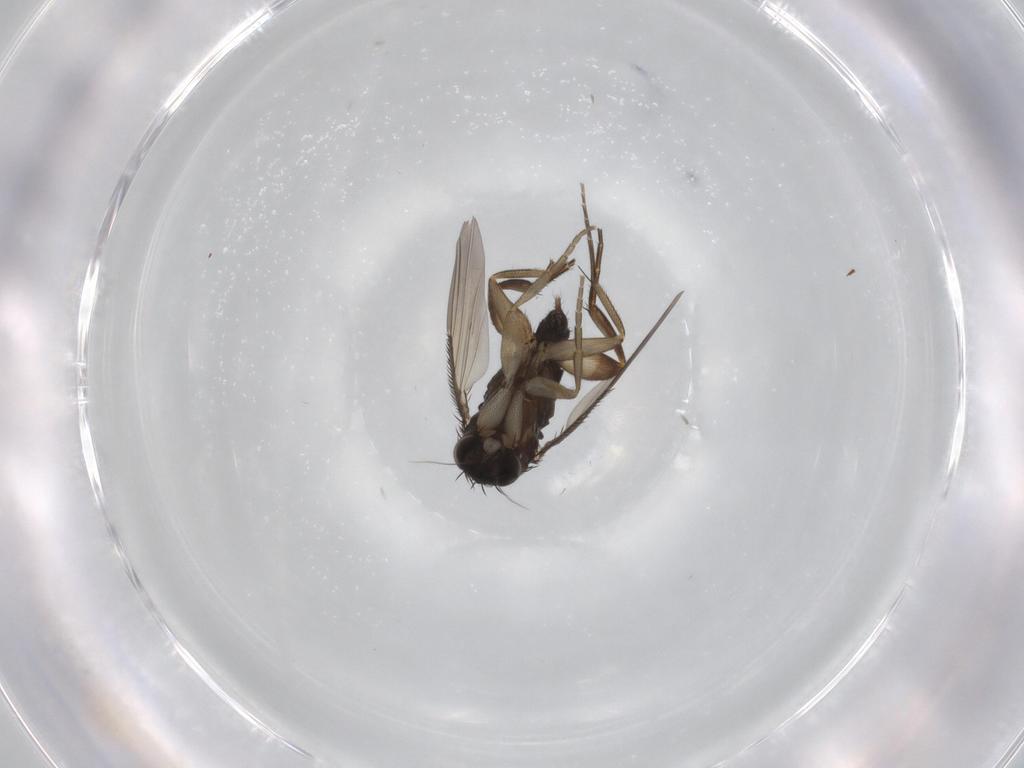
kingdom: Animalia
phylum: Arthropoda
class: Insecta
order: Diptera
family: Phoridae
